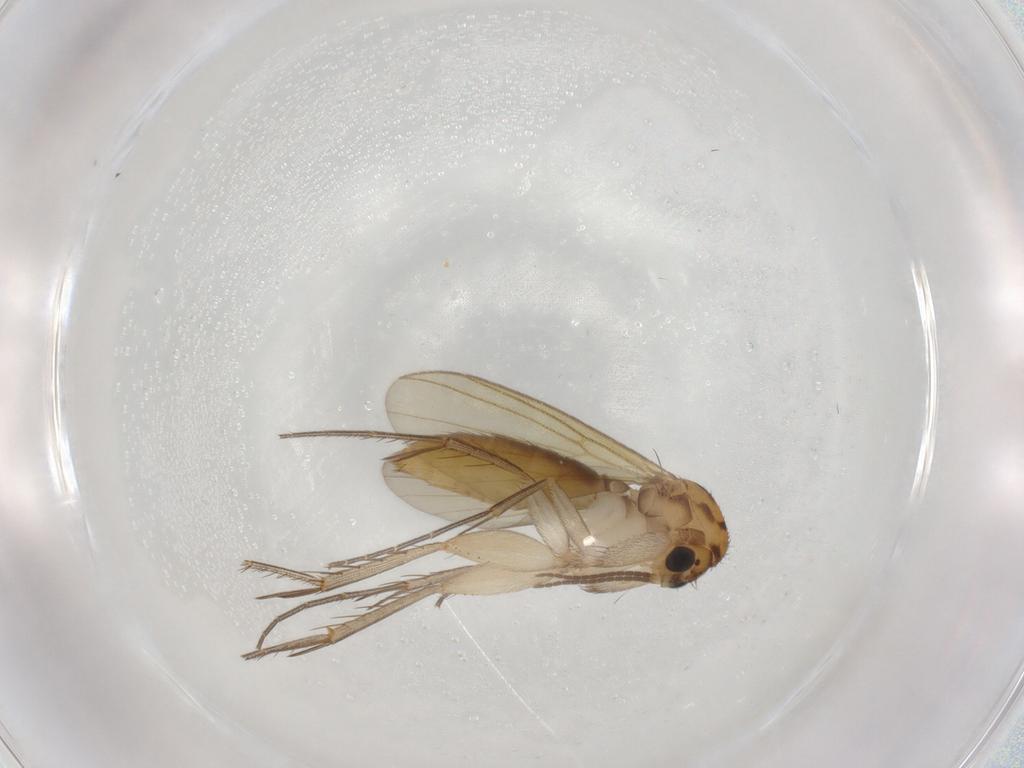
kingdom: Animalia
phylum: Arthropoda
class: Insecta
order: Diptera
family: Mycetophilidae
